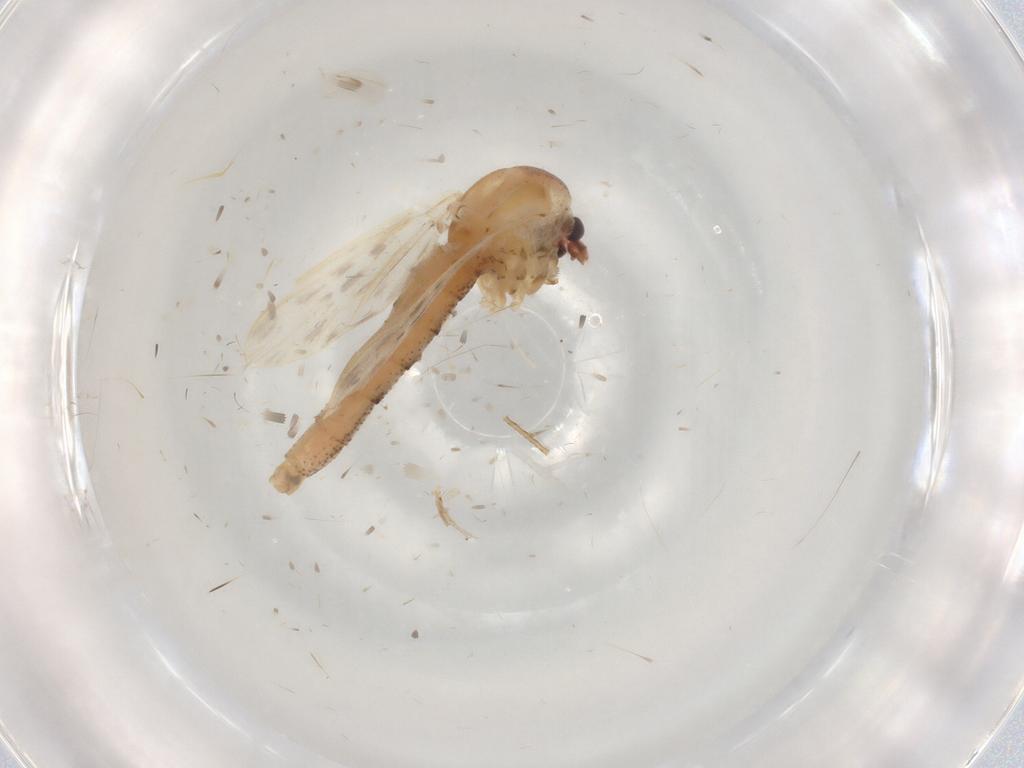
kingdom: Animalia
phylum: Arthropoda
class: Insecta
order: Diptera
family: Chaoboridae
